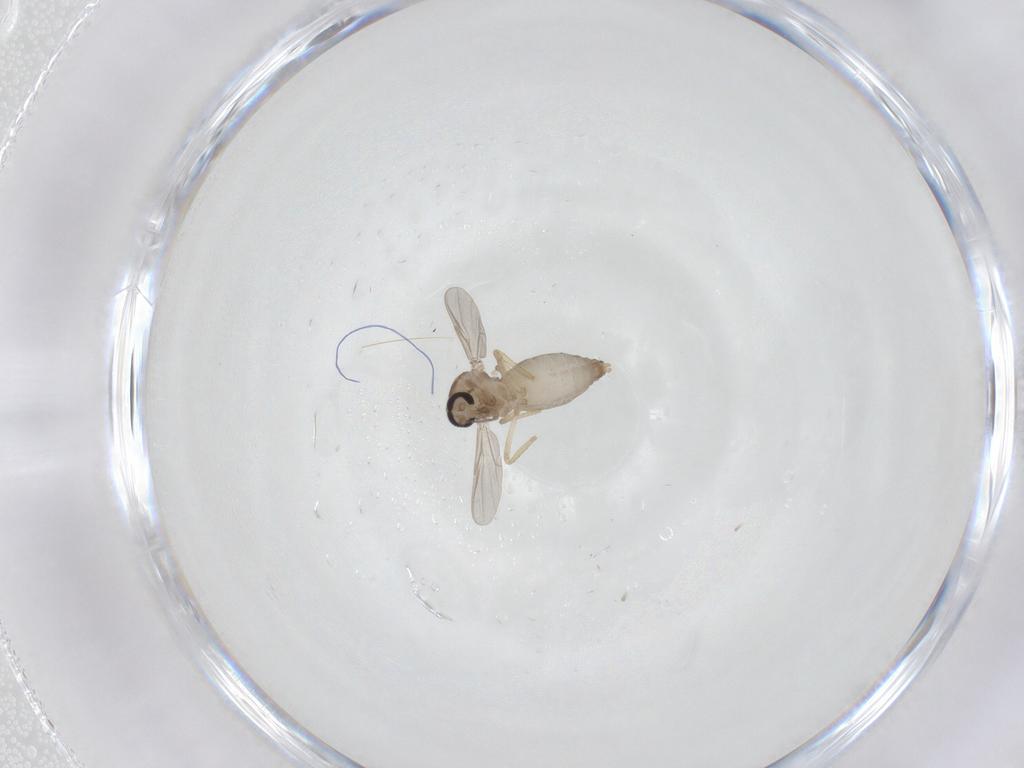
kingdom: Animalia
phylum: Arthropoda
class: Insecta
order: Diptera
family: Ceratopogonidae
